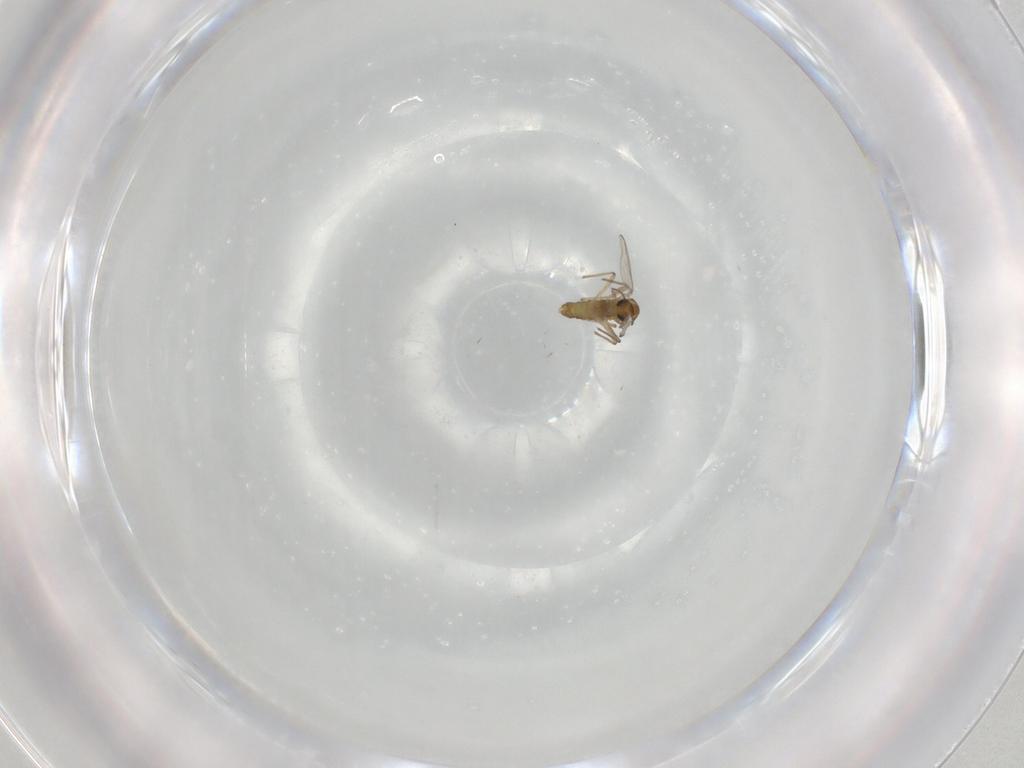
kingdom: Animalia
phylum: Arthropoda
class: Insecta
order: Diptera
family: Chironomidae
